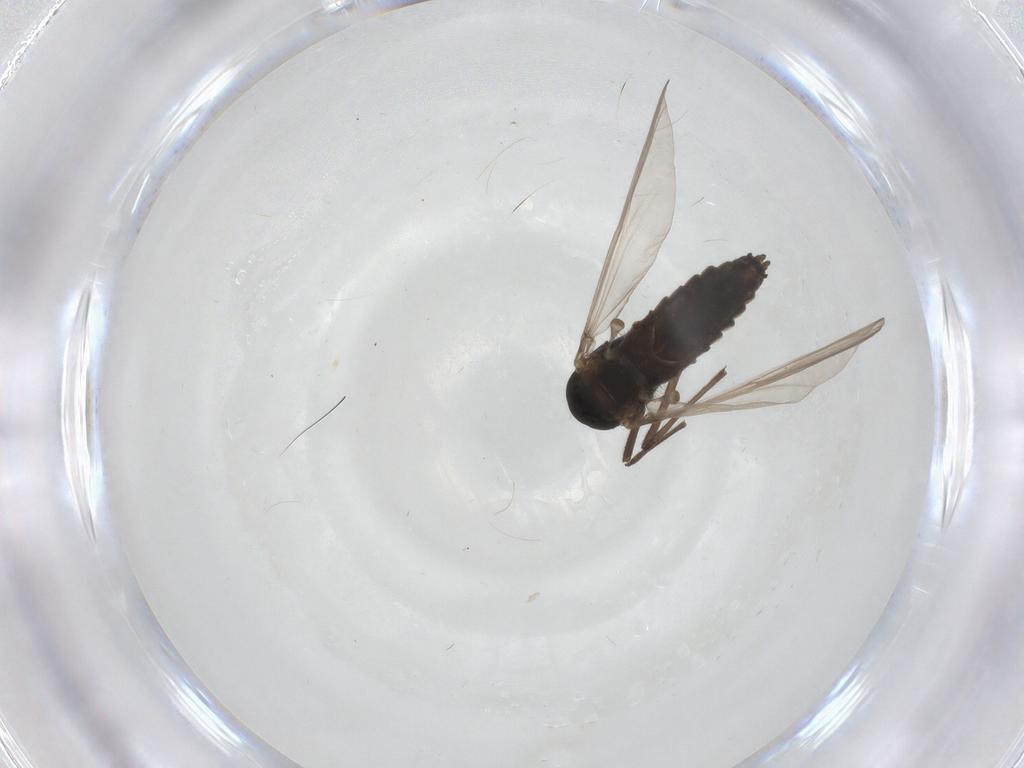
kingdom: Animalia
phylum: Arthropoda
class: Insecta
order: Diptera
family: Chironomidae
